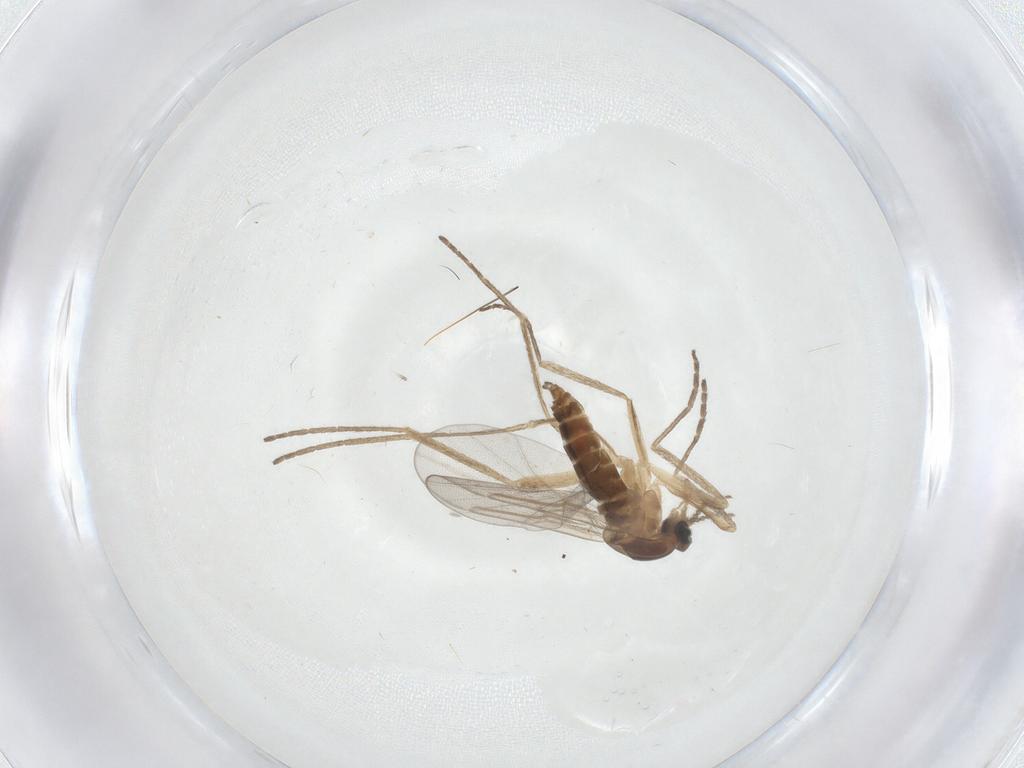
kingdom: Animalia
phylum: Arthropoda
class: Insecta
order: Diptera
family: Cecidomyiidae
